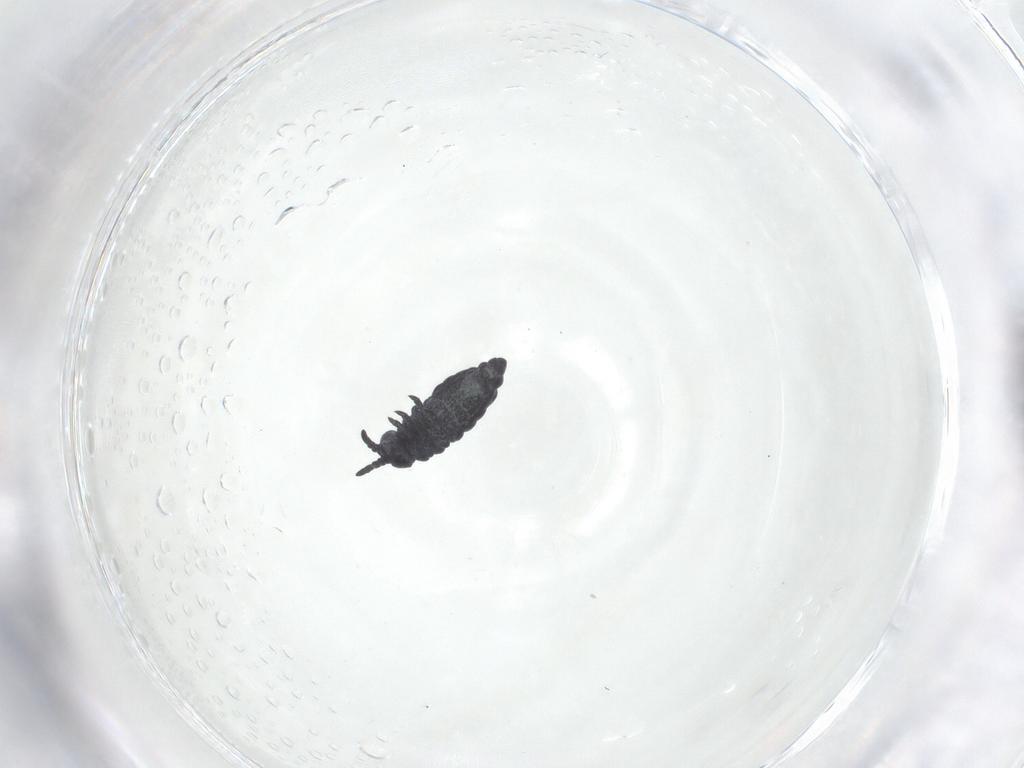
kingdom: Animalia
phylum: Arthropoda
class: Collembola
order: Poduromorpha
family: Hypogastruridae
